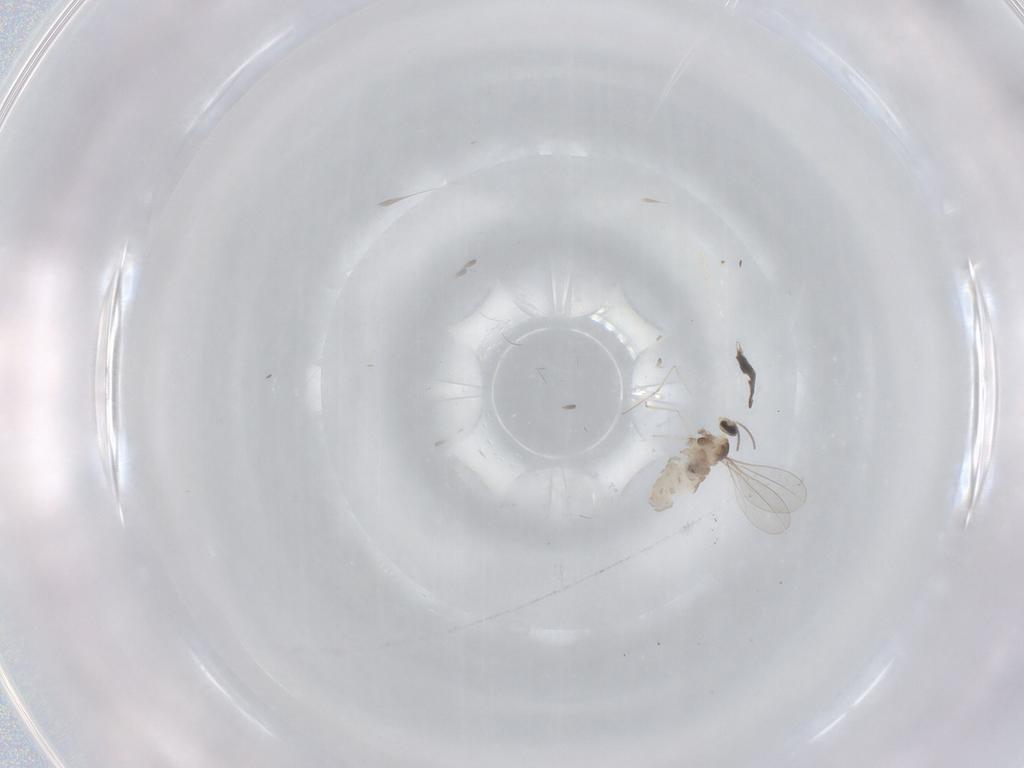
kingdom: Animalia
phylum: Arthropoda
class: Insecta
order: Diptera
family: Cecidomyiidae
